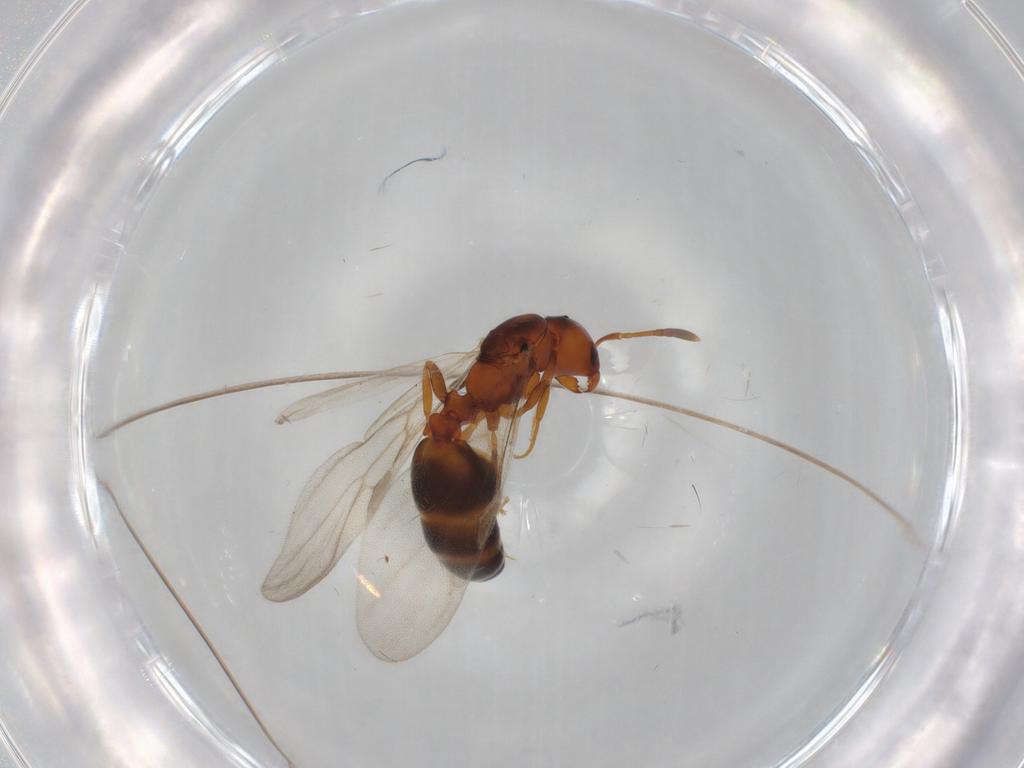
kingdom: Animalia
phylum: Arthropoda
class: Insecta
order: Hymenoptera
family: Formicidae
